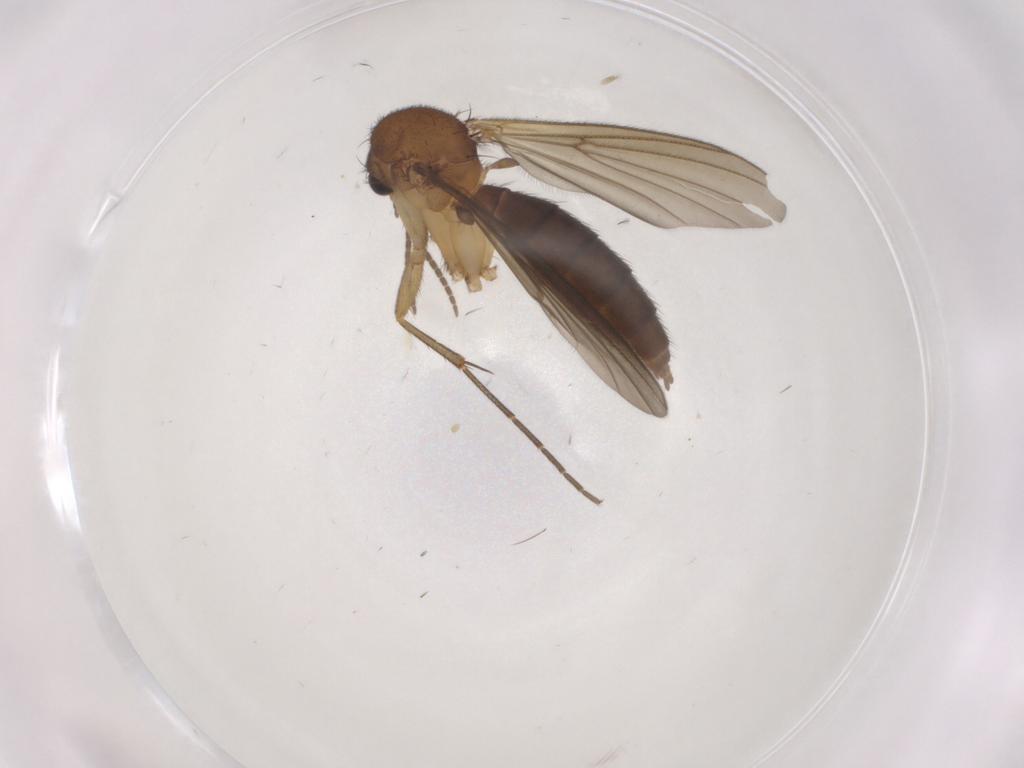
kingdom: Animalia
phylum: Arthropoda
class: Insecta
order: Diptera
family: Mycetophilidae
